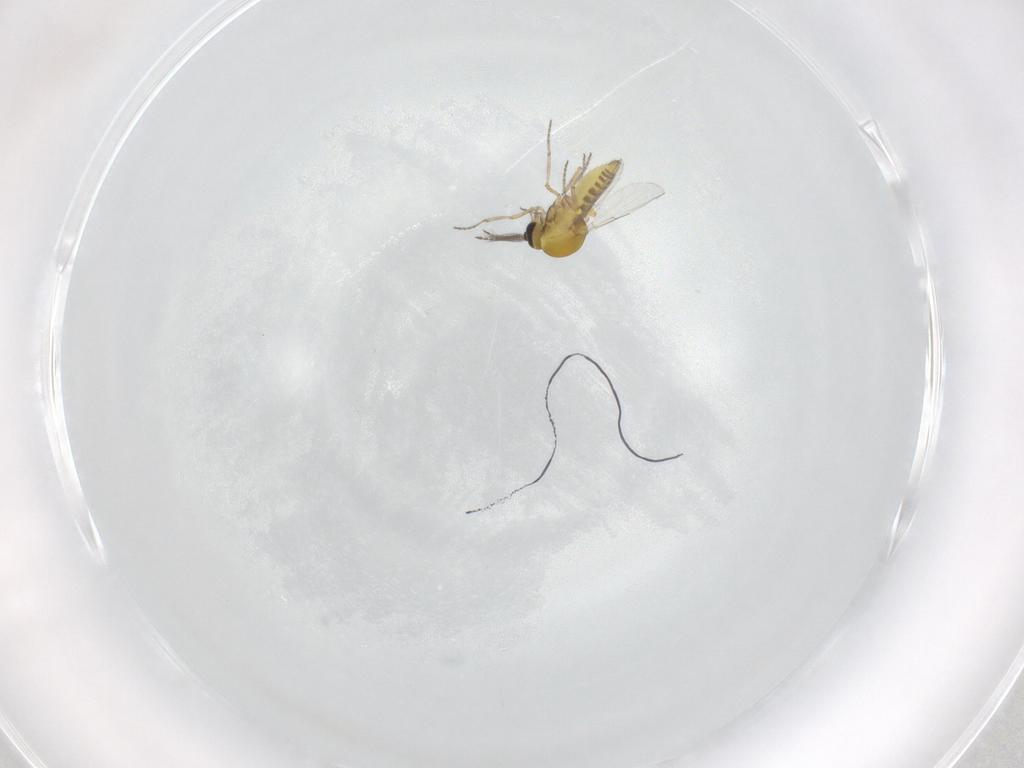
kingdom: Animalia
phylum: Arthropoda
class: Insecta
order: Diptera
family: Ceratopogonidae
